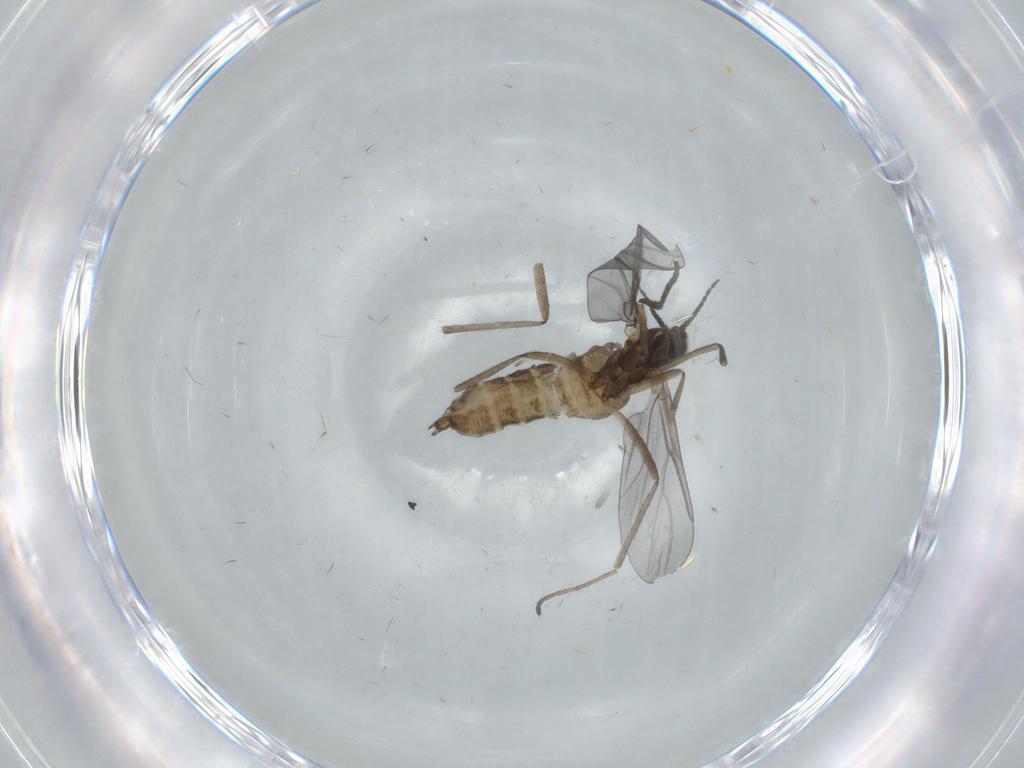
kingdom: Animalia
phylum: Arthropoda
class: Insecta
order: Diptera
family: Cecidomyiidae
